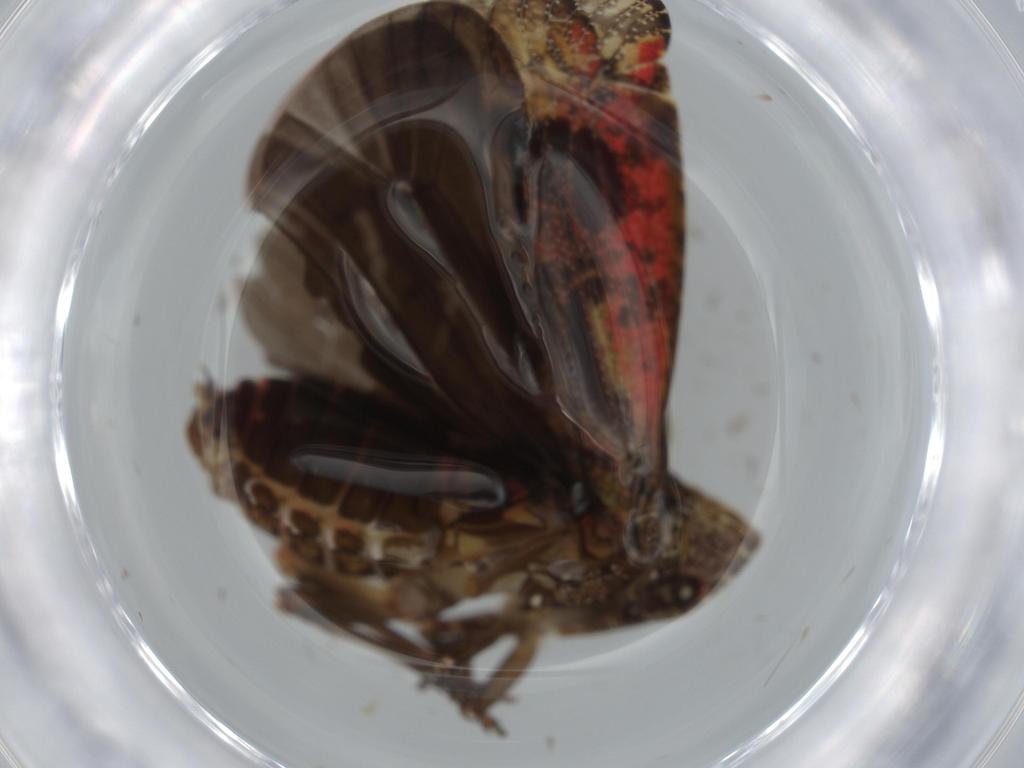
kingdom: Animalia
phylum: Arthropoda
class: Insecta
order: Hemiptera
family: Achilidae
